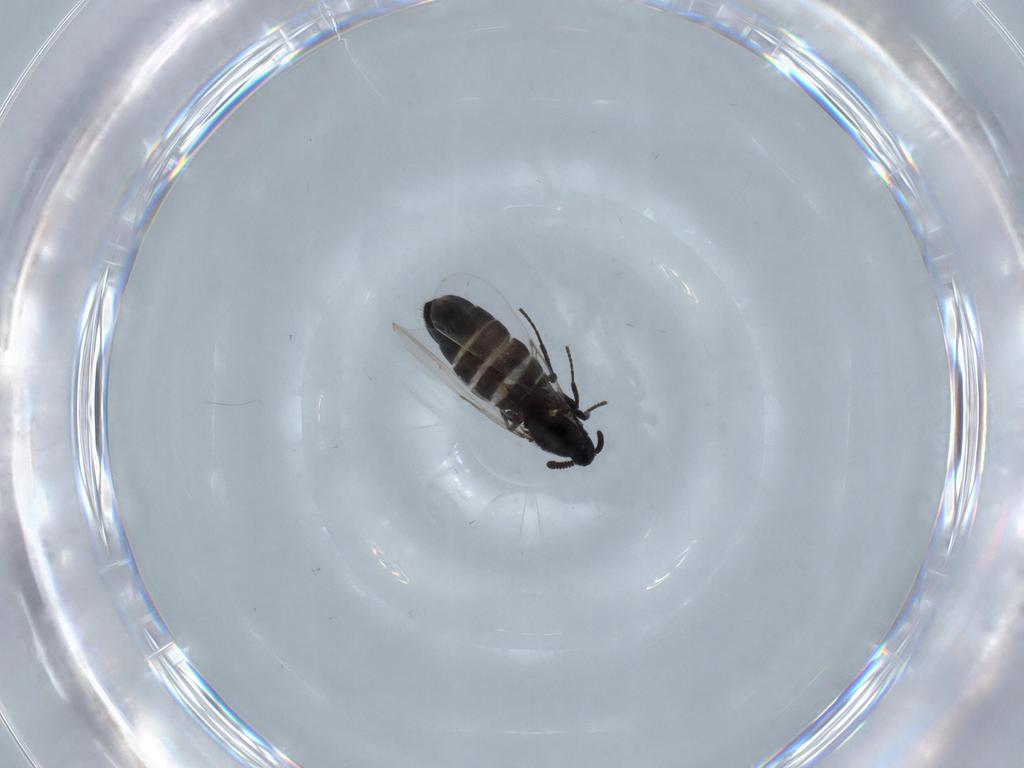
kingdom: Animalia
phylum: Arthropoda
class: Insecta
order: Diptera
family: Scatopsidae
